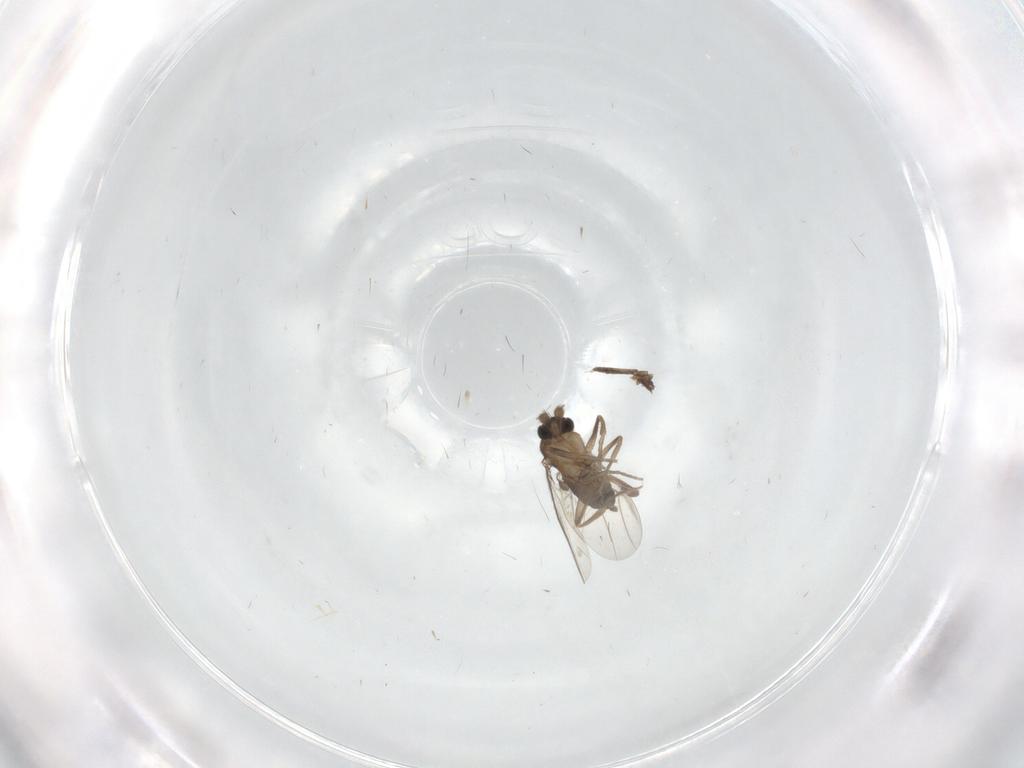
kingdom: Animalia
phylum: Arthropoda
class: Insecta
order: Diptera
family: Phoridae
